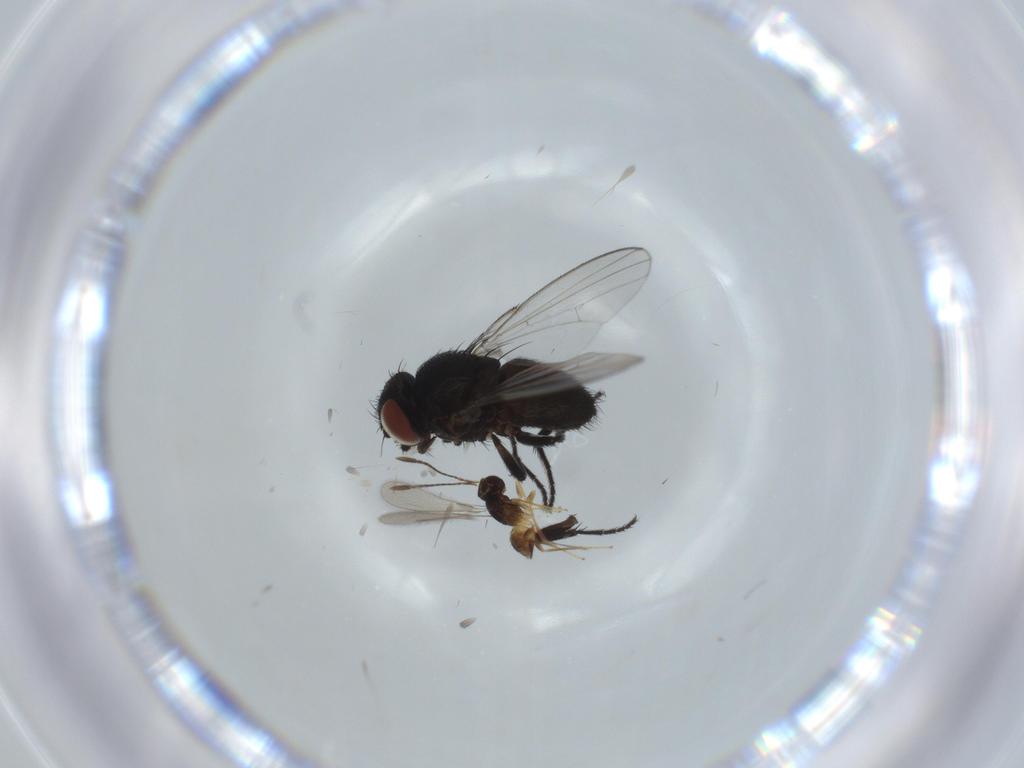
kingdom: Animalia
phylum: Arthropoda
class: Insecta
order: Hymenoptera
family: Mymaridae
